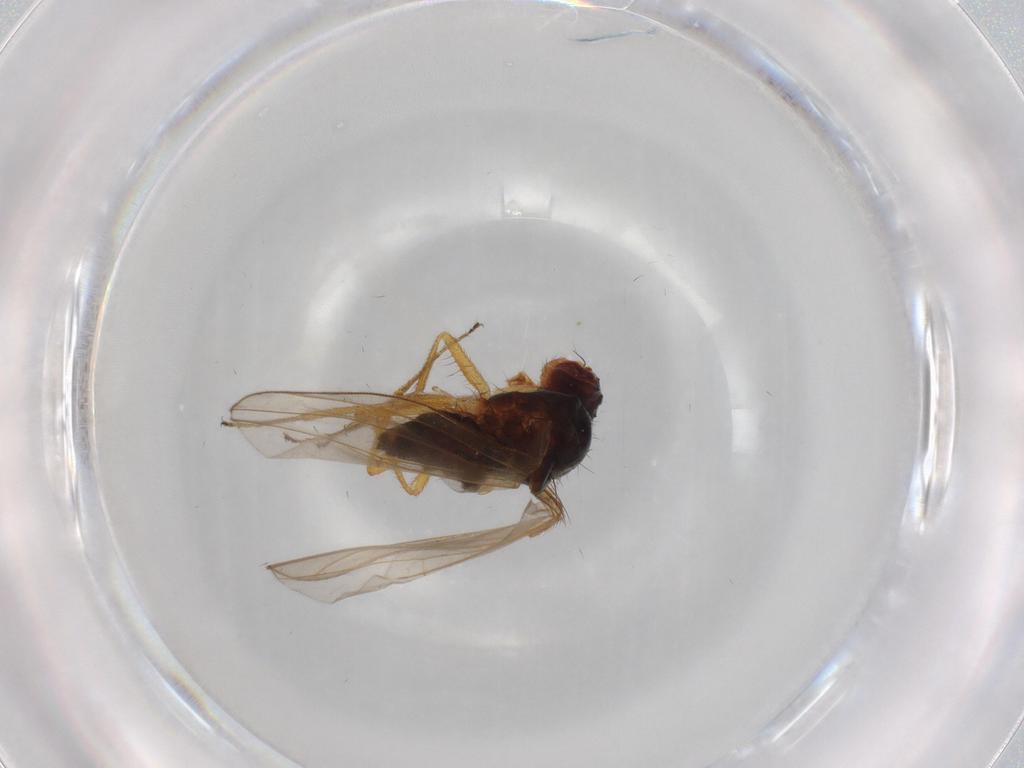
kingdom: Animalia
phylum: Arthropoda
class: Insecta
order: Diptera
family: Drosophilidae
